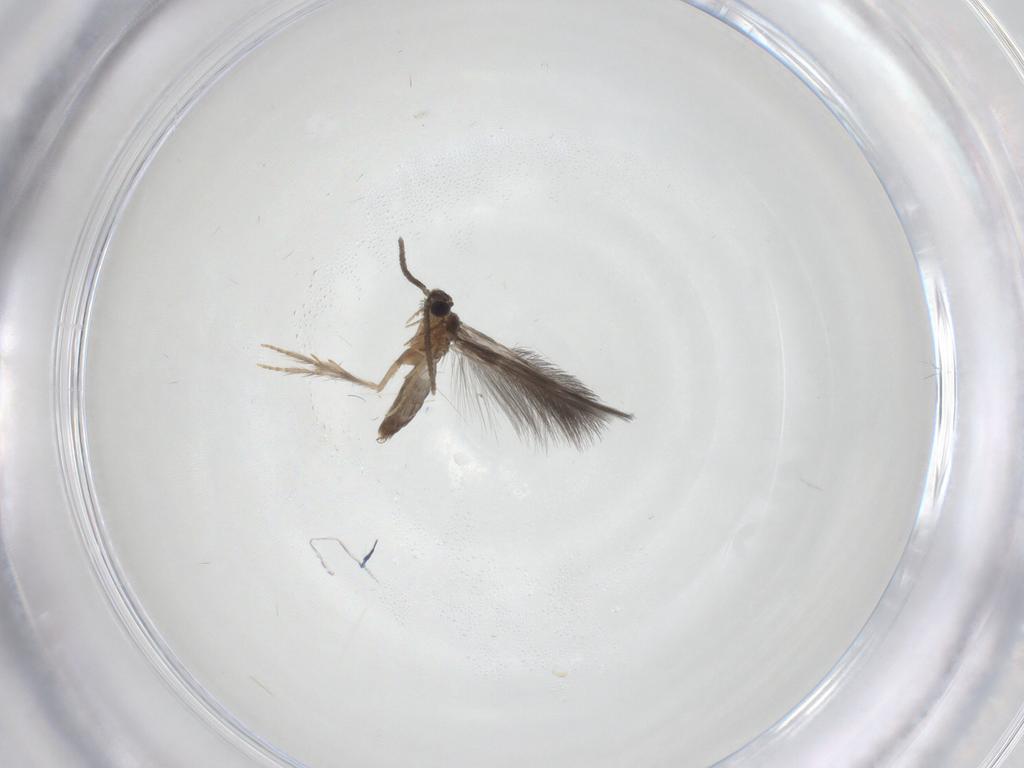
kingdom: Animalia
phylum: Arthropoda
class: Insecta
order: Trichoptera
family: Hydroptilidae
